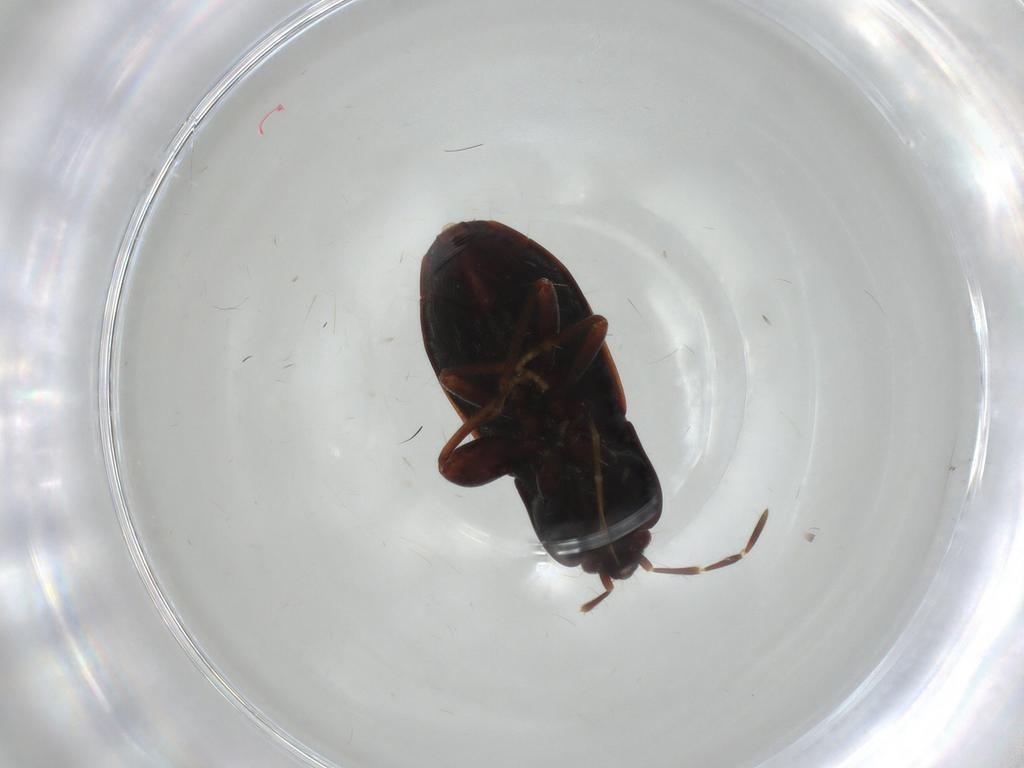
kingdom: Animalia
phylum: Arthropoda
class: Insecta
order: Hemiptera
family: Rhyparochromidae
